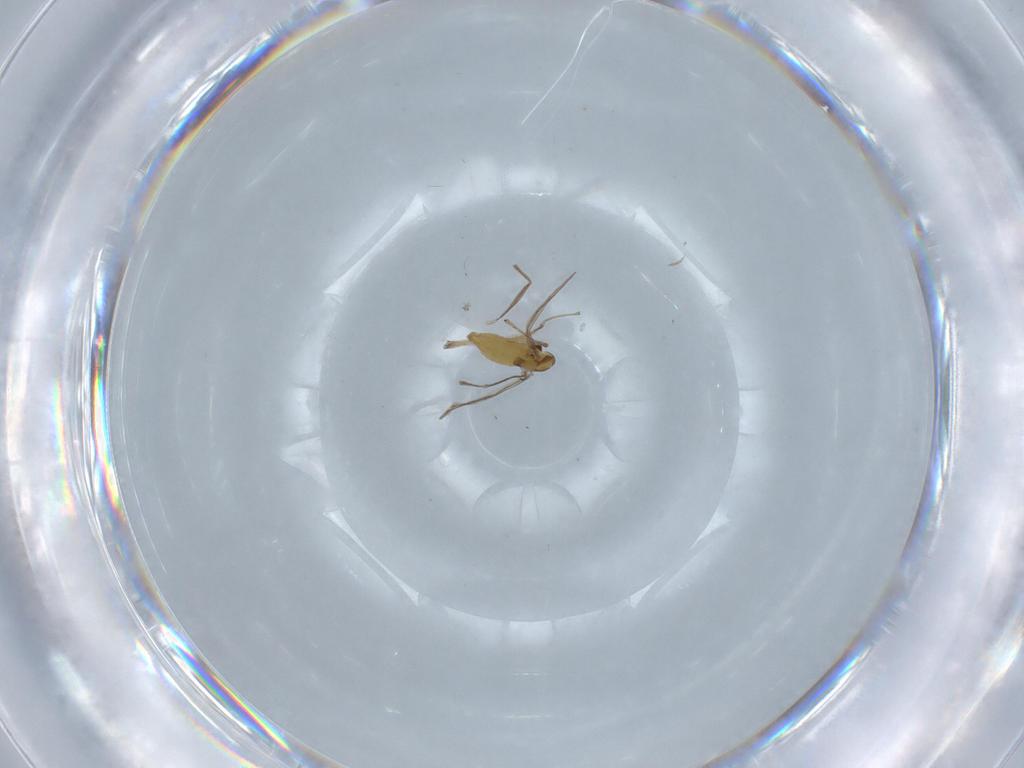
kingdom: Animalia
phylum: Arthropoda
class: Insecta
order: Diptera
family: Chironomidae
